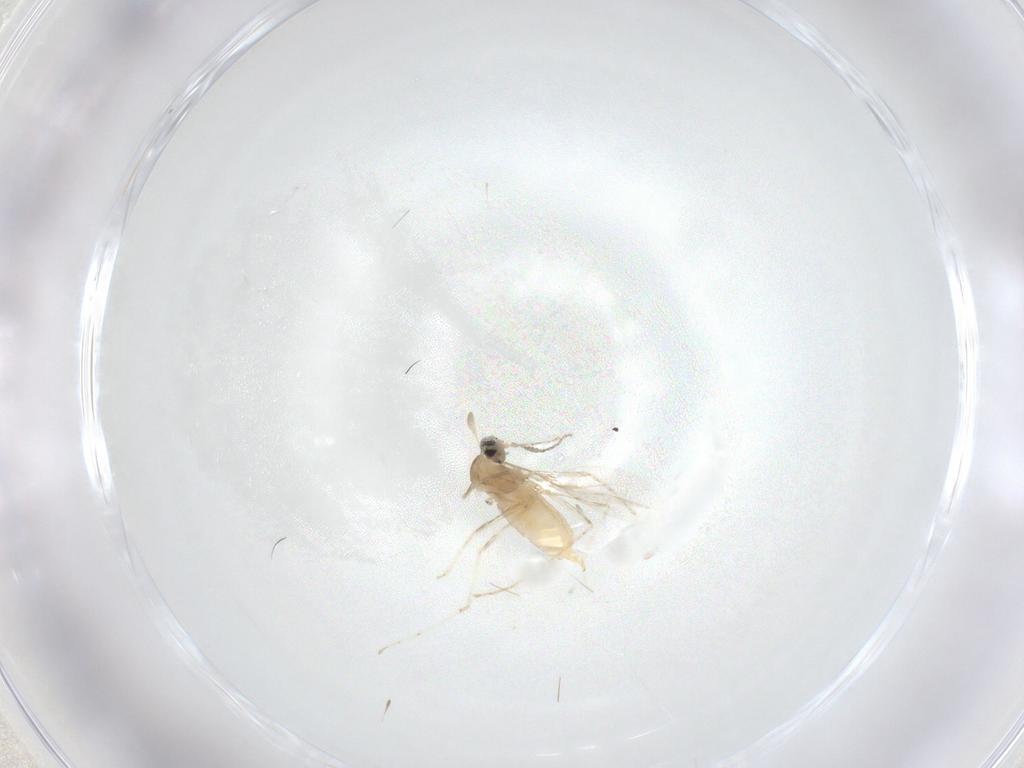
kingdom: Animalia
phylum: Arthropoda
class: Insecta
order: Diptera
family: Cecidomyiidae
